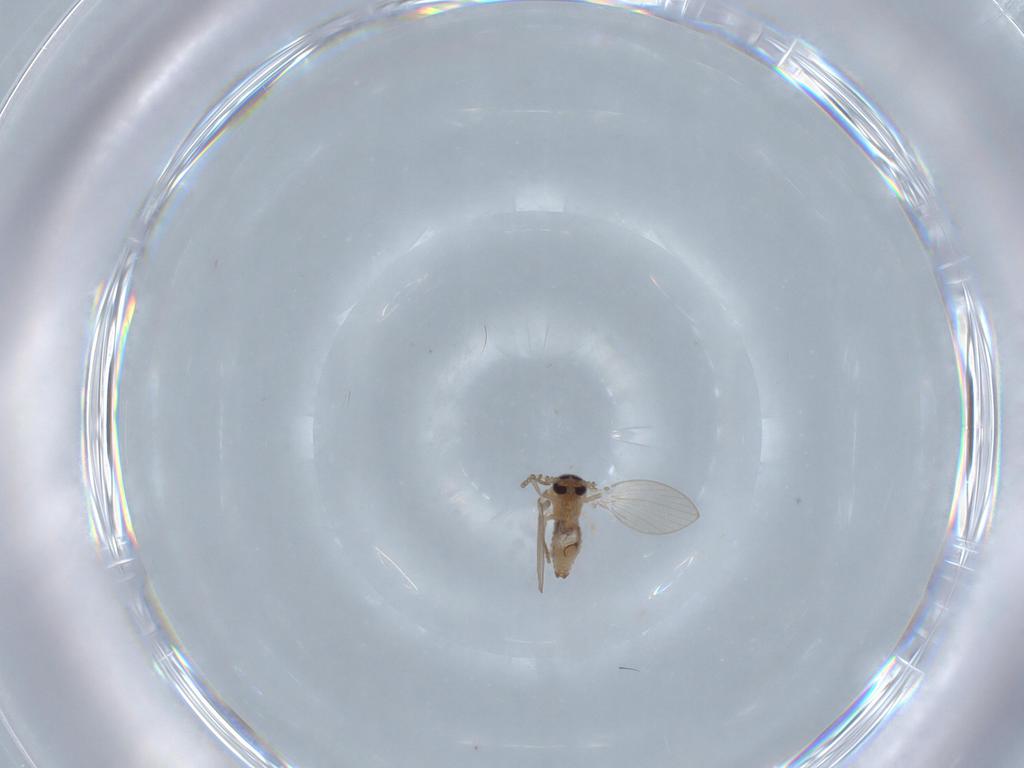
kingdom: Animalia
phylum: Arthropoda
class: Insecta
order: Diptera
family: Psychodidae
